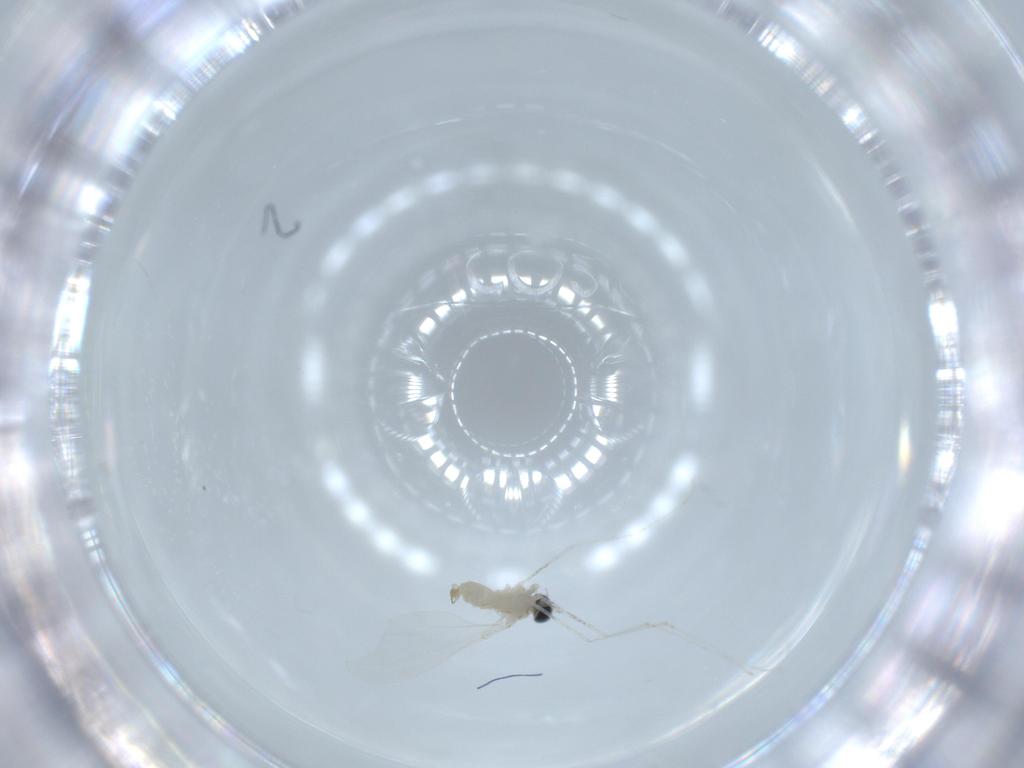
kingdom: Animalia
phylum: Arthropoda
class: Insecta
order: Diptera
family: Cecidomyiidae
